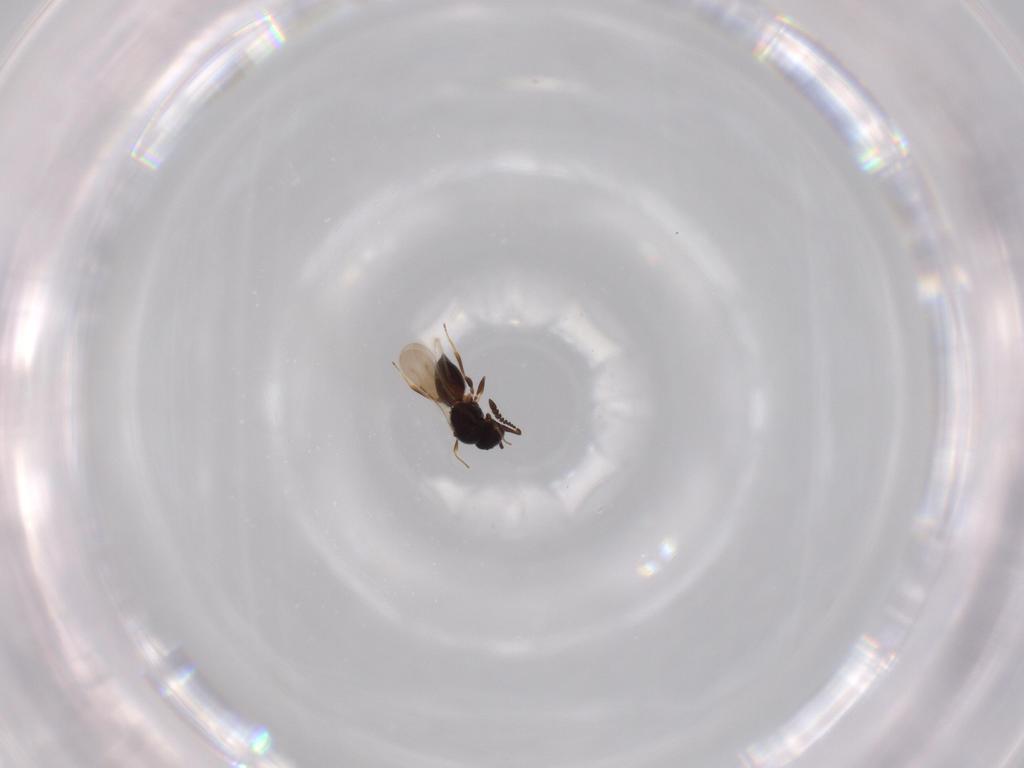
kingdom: Animalia
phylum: Arthropoda
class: Insecta
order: Hymenoptera
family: Ceraphronidae
